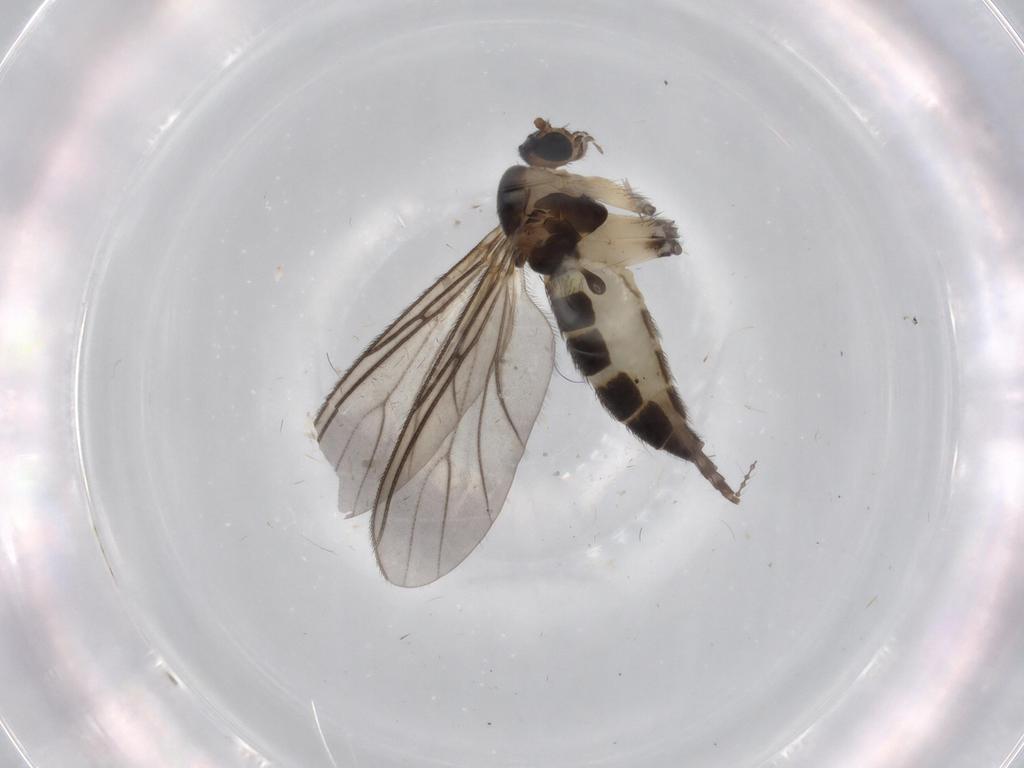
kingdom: Animalia
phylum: Arthropoda
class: Insecta
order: Diptera
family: Sciaridae
